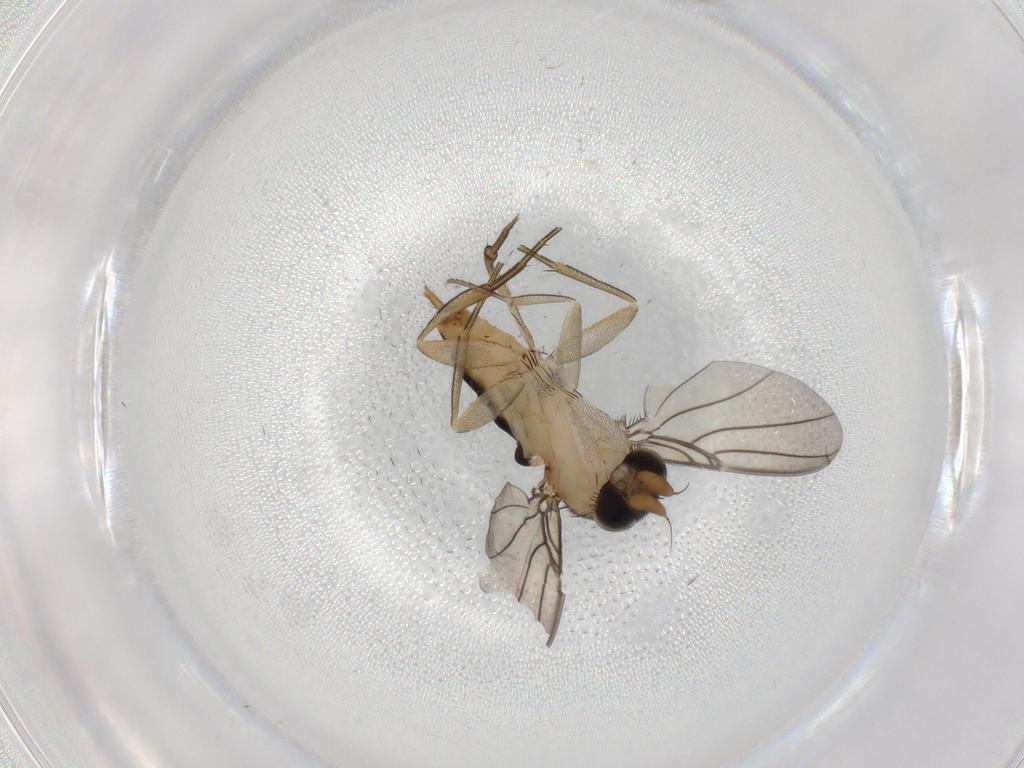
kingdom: Animalia
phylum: Arthropoda
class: Insecta
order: Diptera
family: Phoridae
